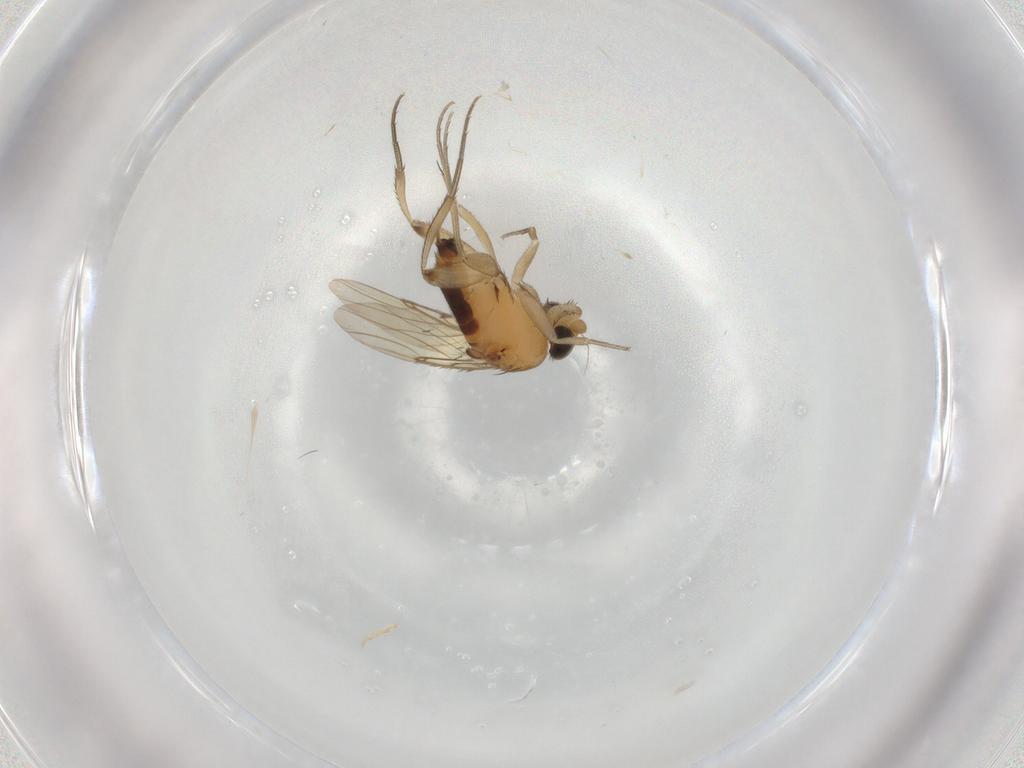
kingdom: Animalia
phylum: Arthropoda
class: Insecta
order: Diptera
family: Phoridae
